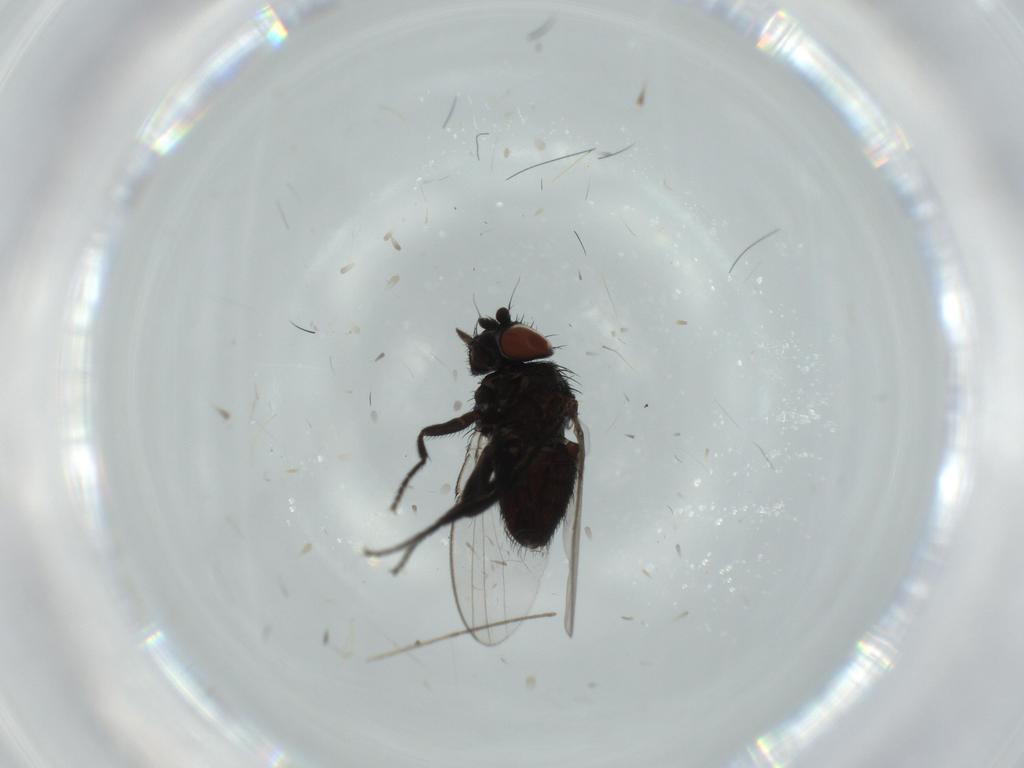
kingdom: Animalia
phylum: Arthropoda
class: Insecta
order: Diptera
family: Milichiidae
